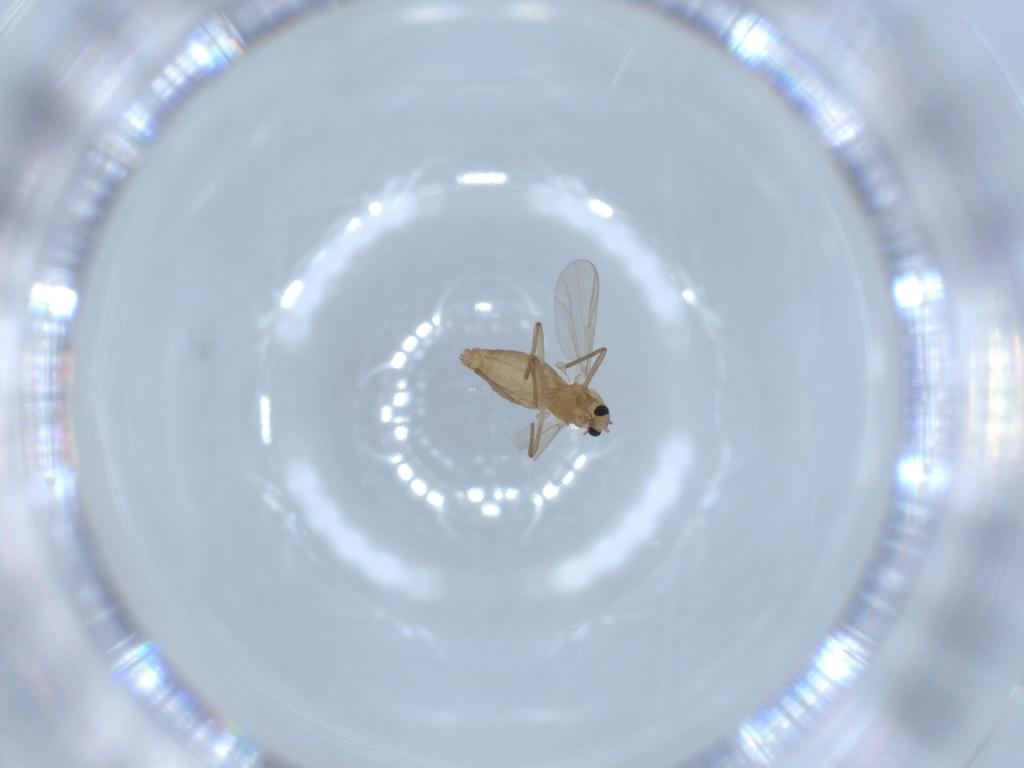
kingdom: Animalia
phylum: Arthropoda
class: Insecta
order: Diptera
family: Chironomidae
